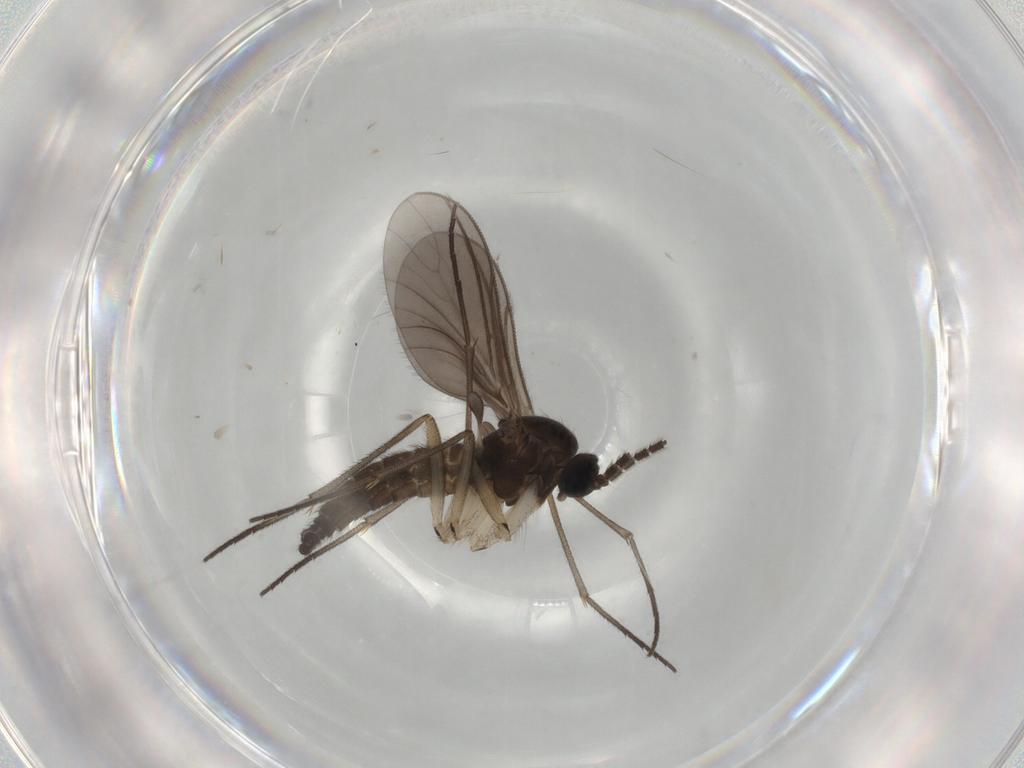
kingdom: Animalia
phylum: Arthropoda
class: Insecta
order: Diptera
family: Sciaridae
